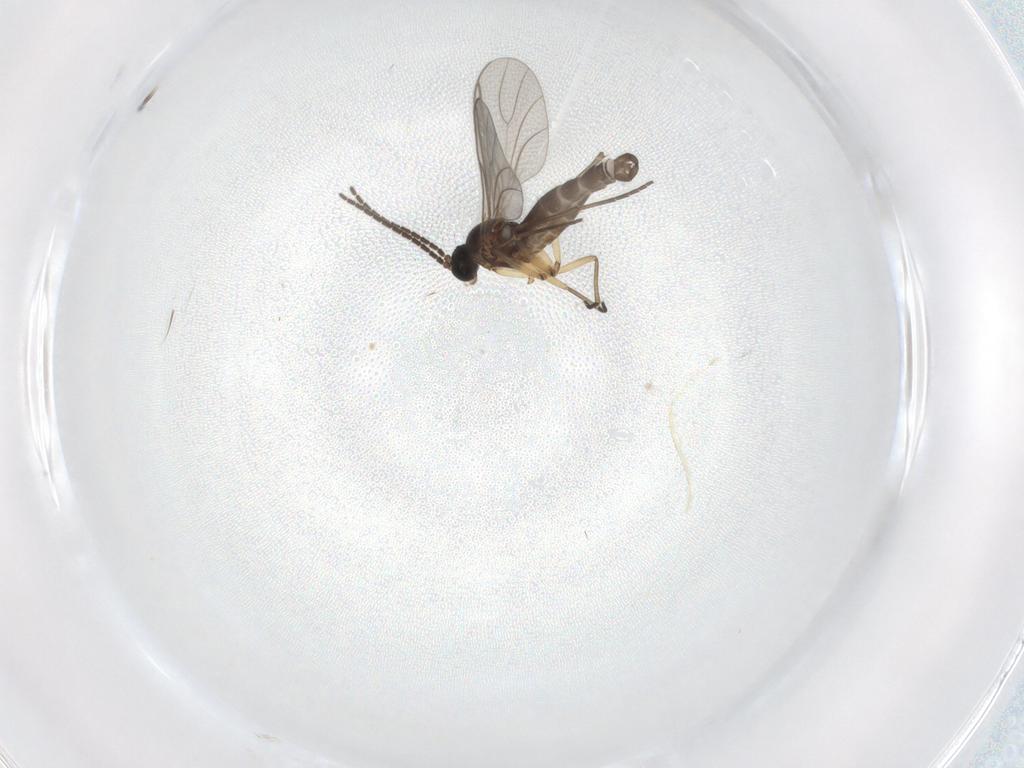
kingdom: Animalia
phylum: Arthropoda
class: Insecta
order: Diptera
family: Sciaridae
